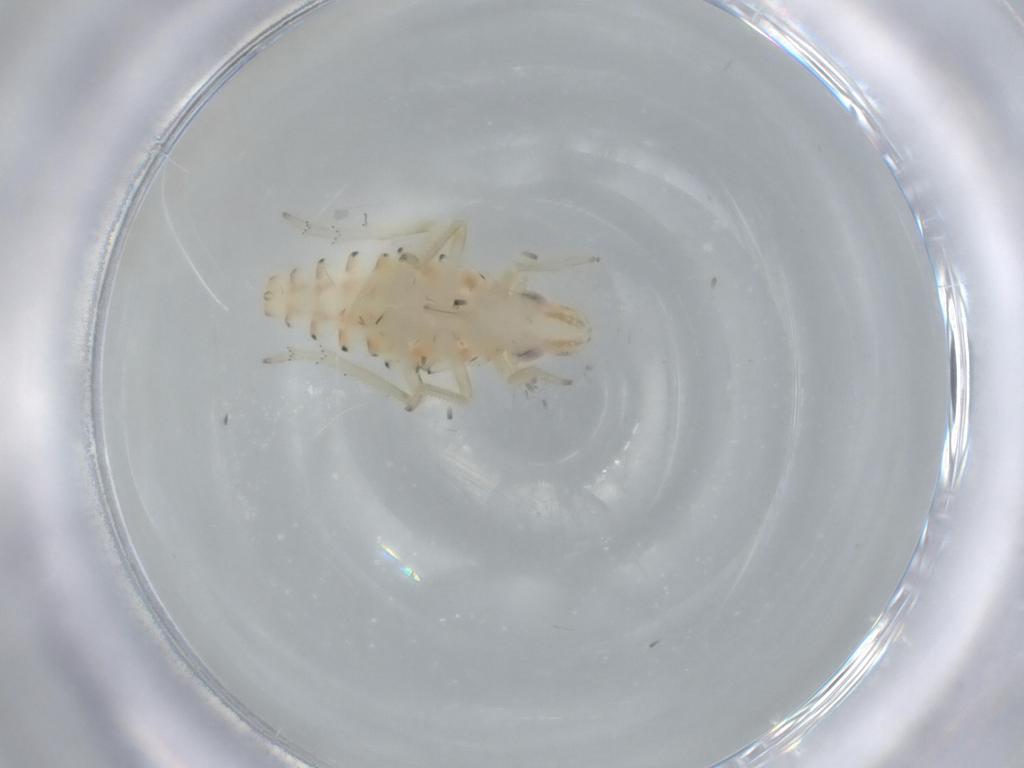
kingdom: Animalia
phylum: Arthropoda
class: Insecta
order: Hemiptera
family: Tropiduchidae
